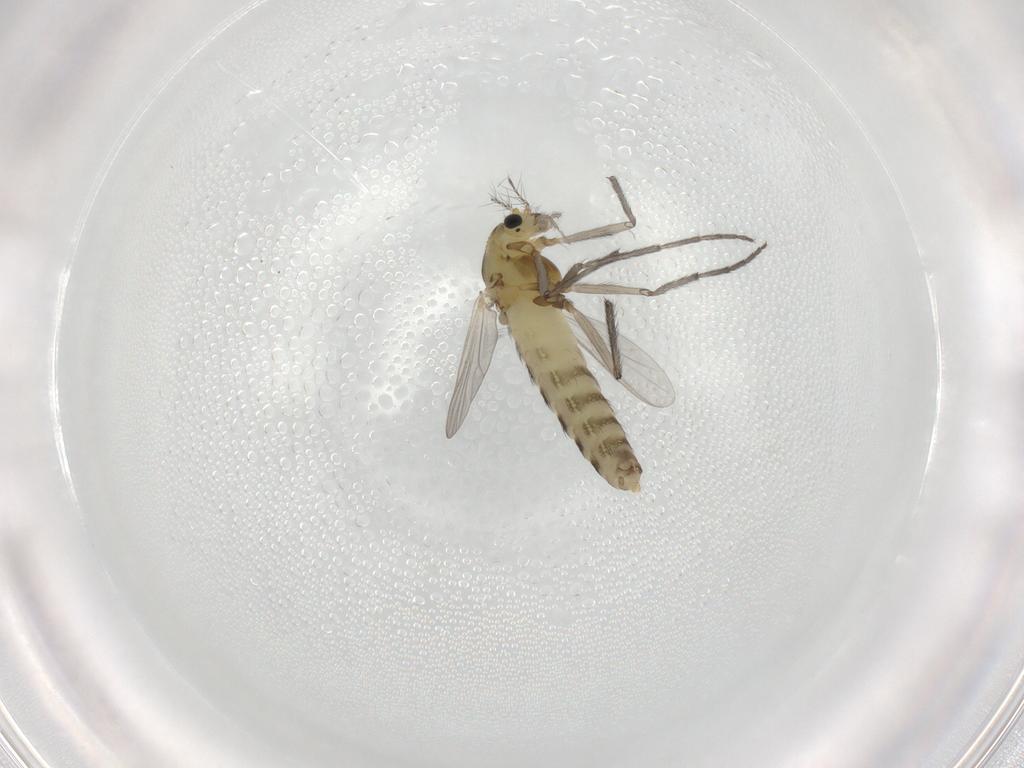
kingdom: Animalia
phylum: Arthropoda
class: Insecta
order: Diptera
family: Chironomidae
